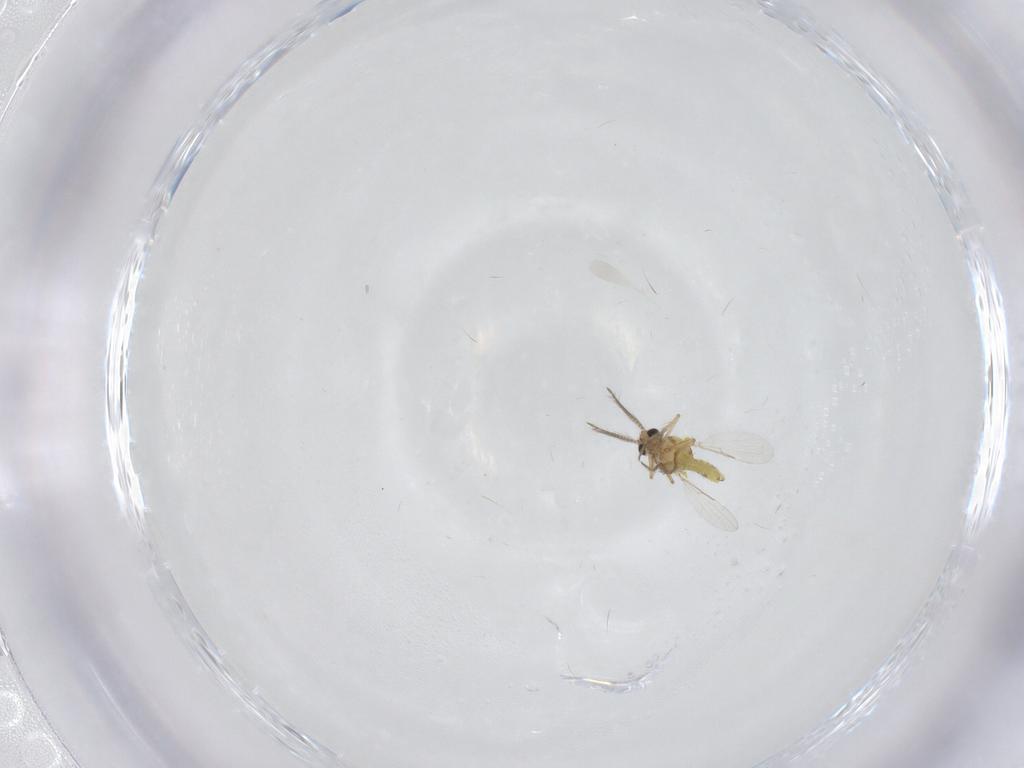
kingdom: Animalia
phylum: Arthropoda
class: Insecta
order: Diptera
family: Ceratopogonidae
